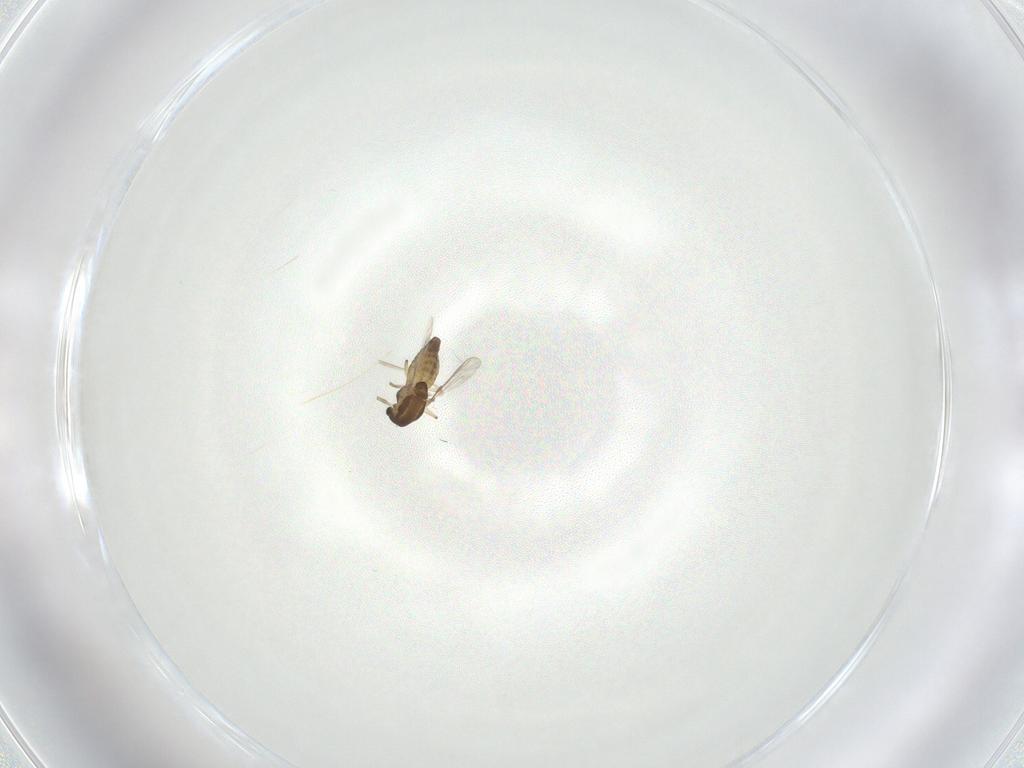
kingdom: Animalia
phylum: Arthropoda
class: Insecta
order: Diptera
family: Chironomidae
